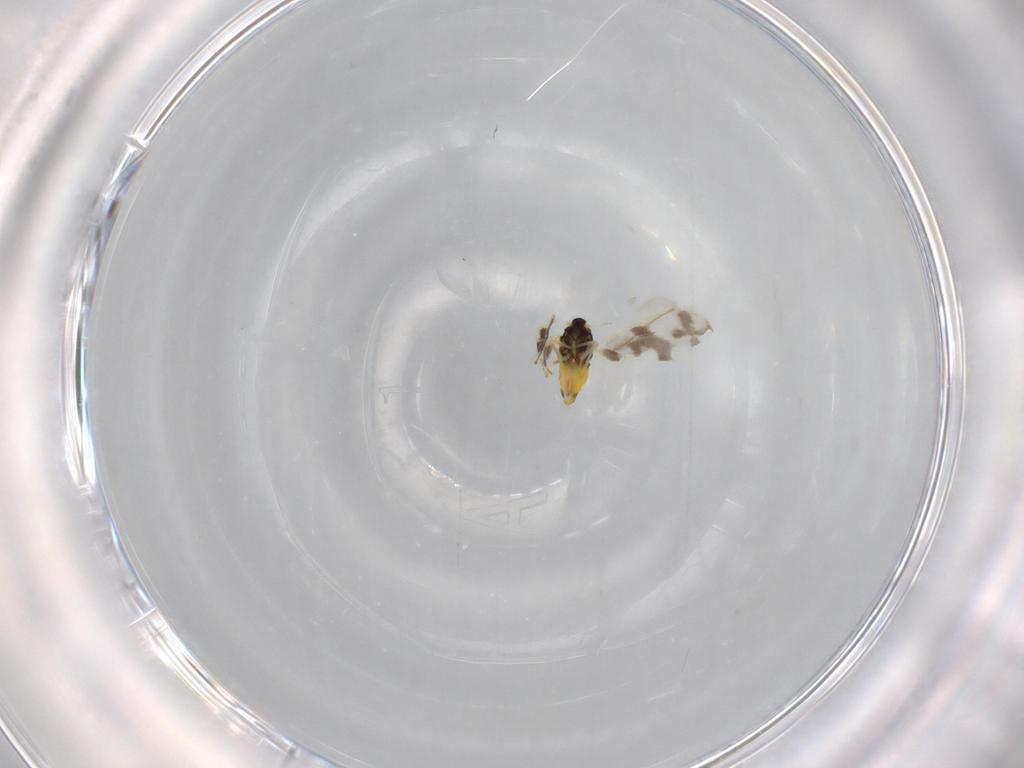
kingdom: Animalia
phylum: Arthropoda
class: Insecta
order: Hemiptera
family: Aleyrodidae
